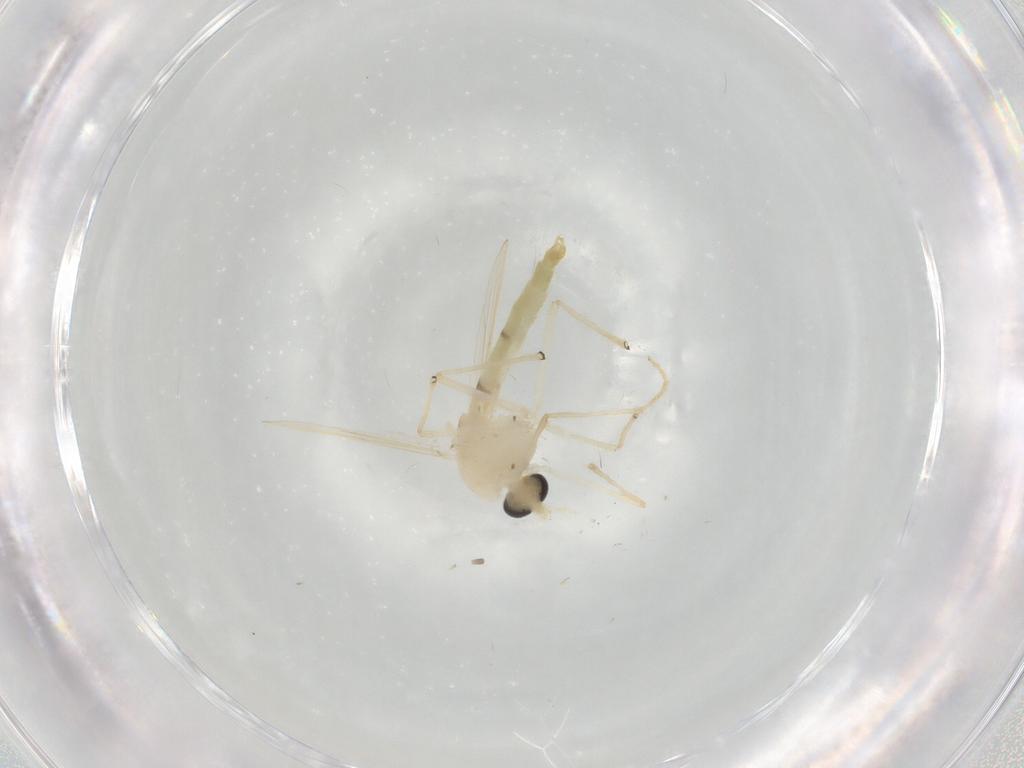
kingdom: Animalia
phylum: Arthropoda
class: Insecta
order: Diptera
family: Chironomidae
